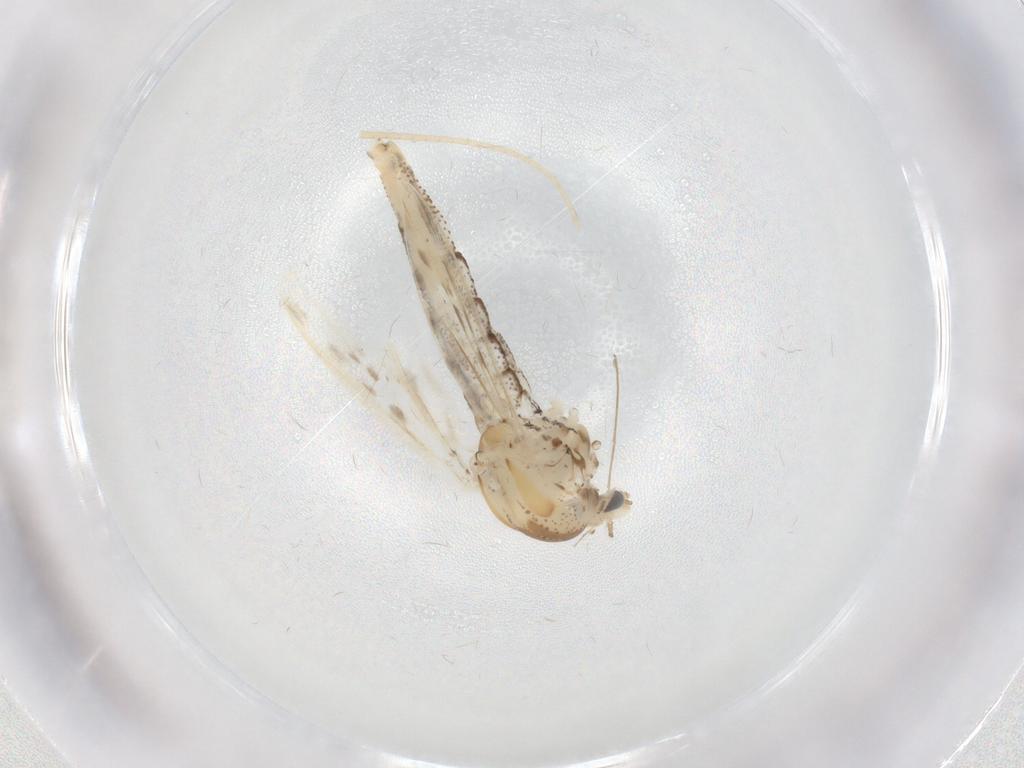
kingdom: Animalia
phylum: Arthropoda
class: Insecta
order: Diptera
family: Chaoboridae
